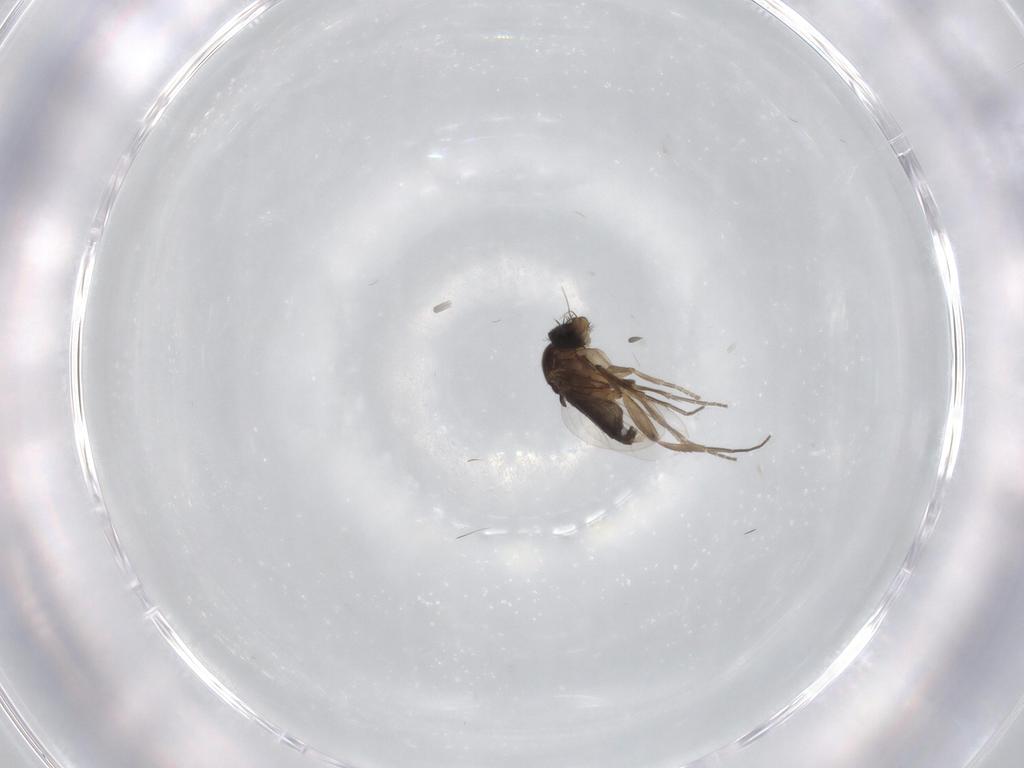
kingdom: Animalia
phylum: Arthropoda
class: Insecta
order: Diptera
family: Phoridae
